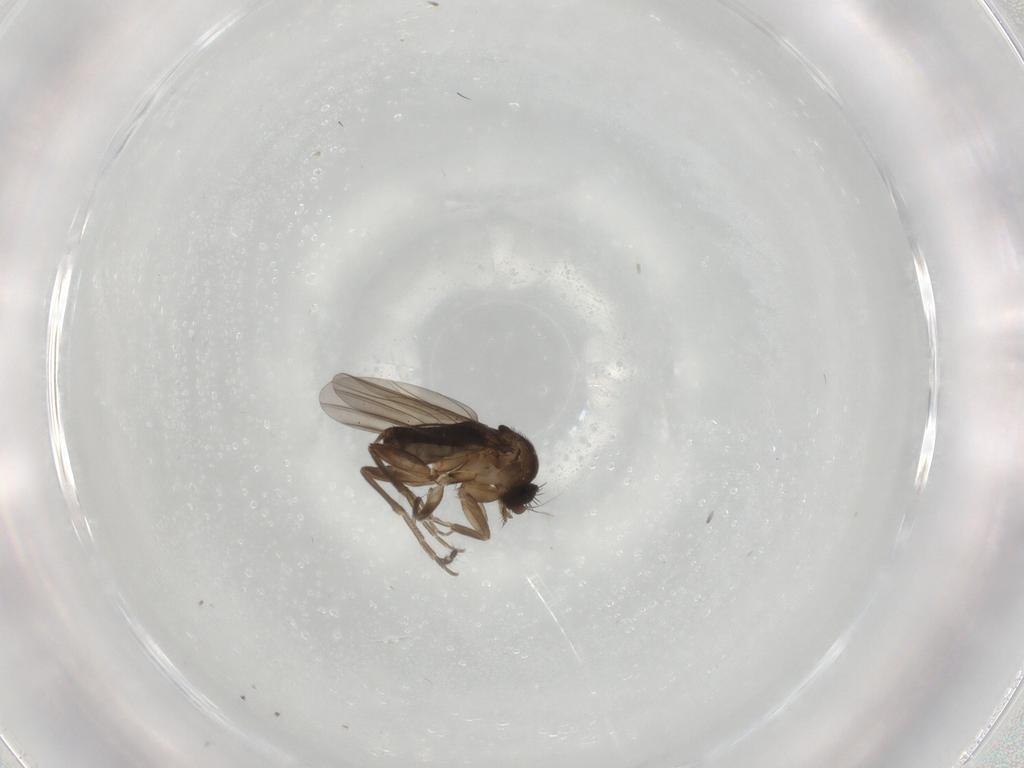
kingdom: Animalia
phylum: Arthropoda
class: Insecta
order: Diptera
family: Phoridae
